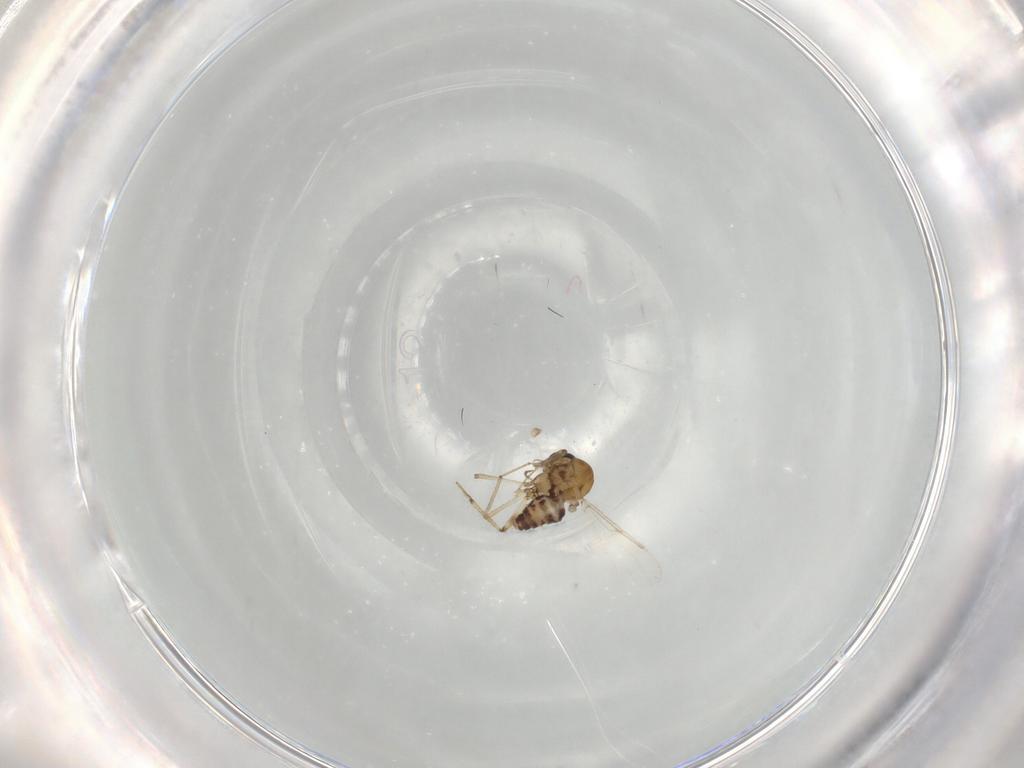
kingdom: Animalia
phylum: Arthropoda
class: Insecta
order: Diptera
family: Ceratopogonidae
